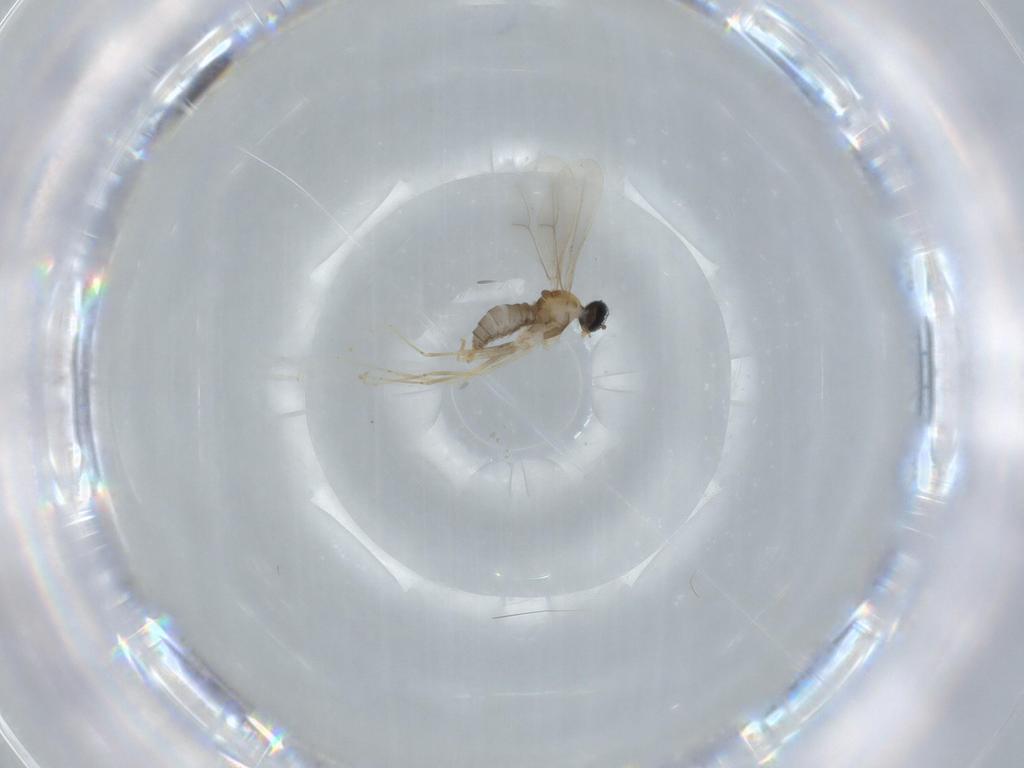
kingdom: Animalia
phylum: Arthropoda
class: Insecta
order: Diptera
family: Cecidomyiidae
